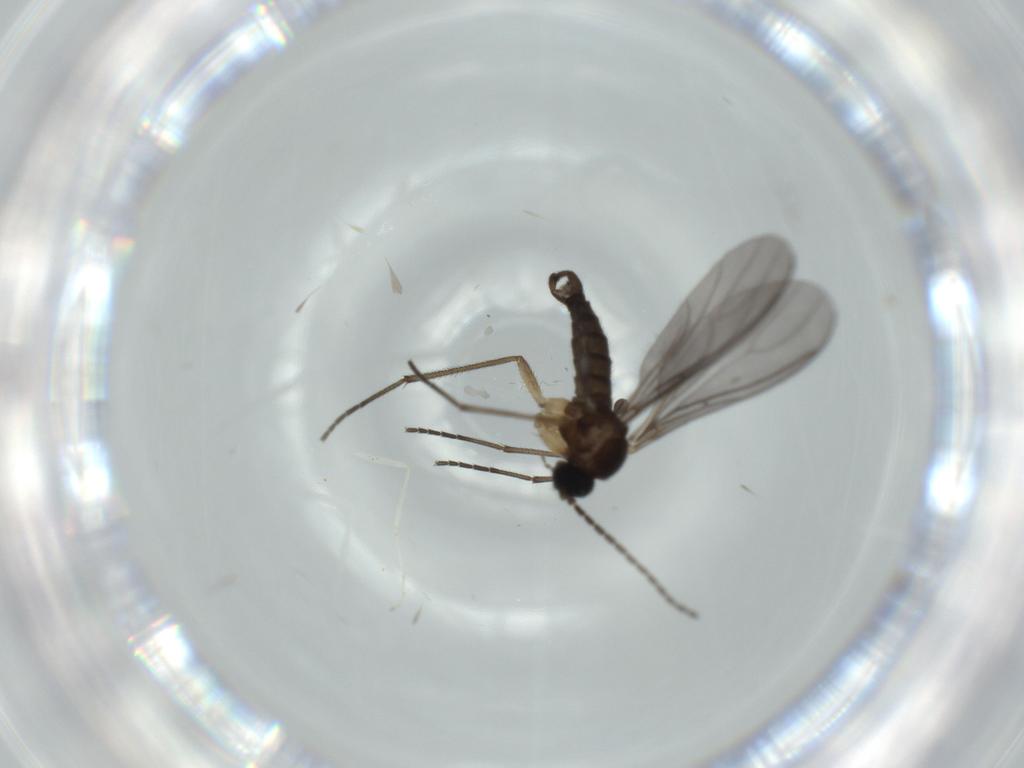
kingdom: Animalia
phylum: Arthropoda
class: Insecta
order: Diptera
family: Sciaridae
